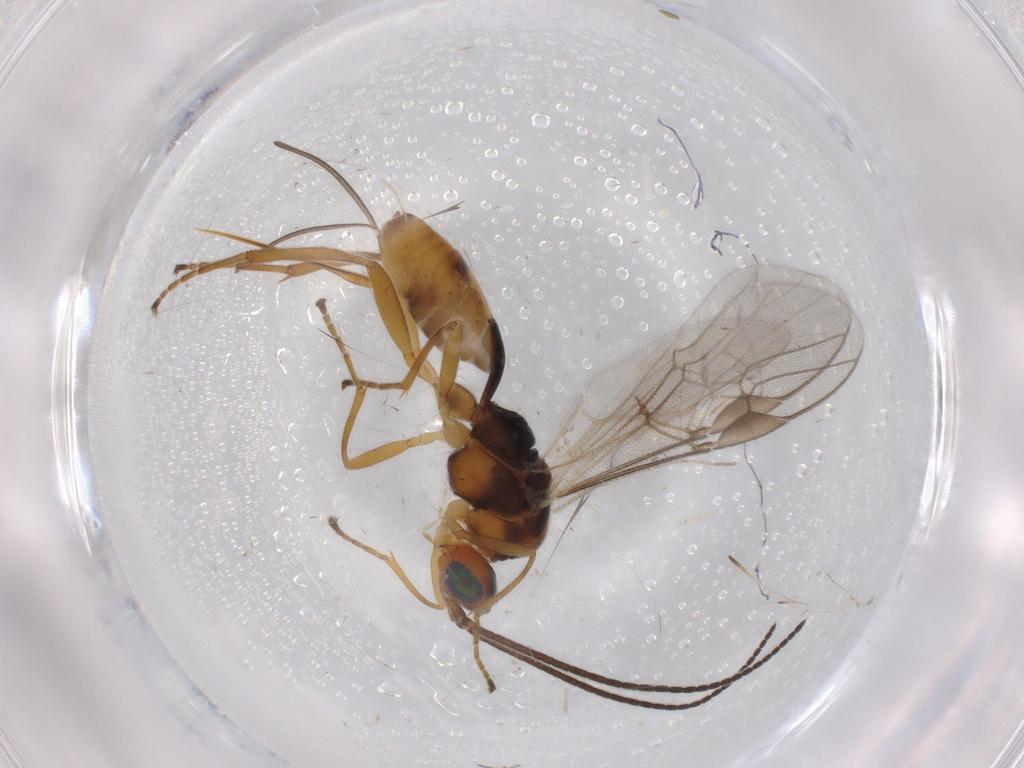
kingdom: Animalia
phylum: Arthropoda
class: Insecta
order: Hymenoptera
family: Braconidae
